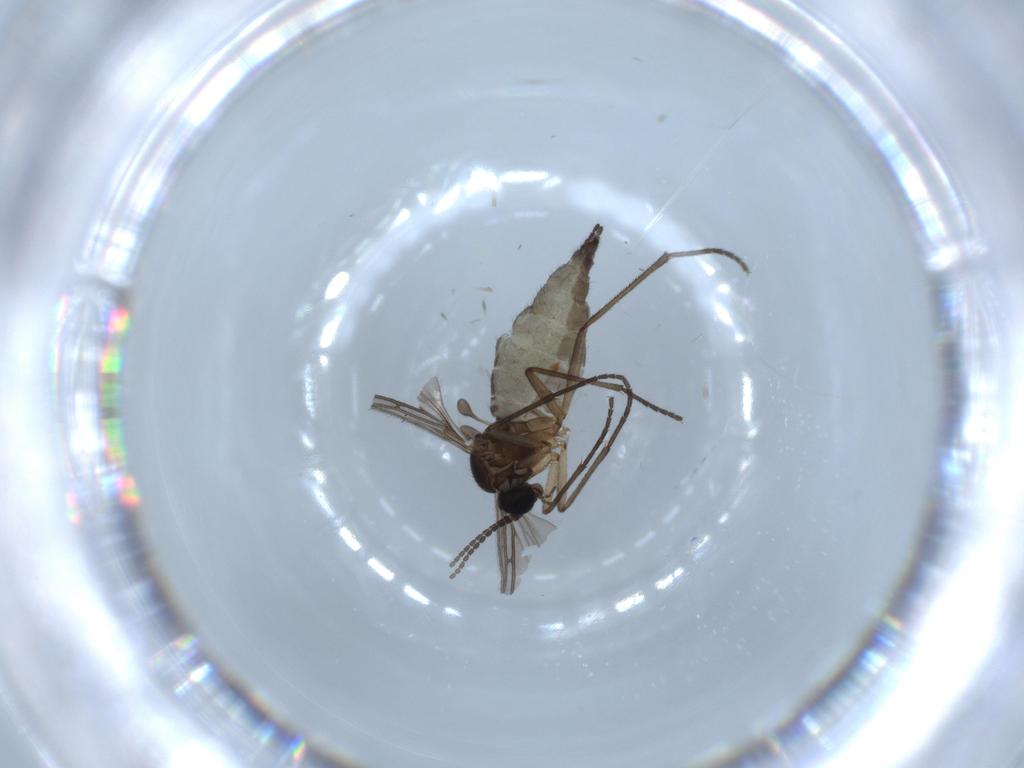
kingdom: Animalia
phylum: Arthropoda
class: Insecta
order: Diptera
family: Sciaridae
